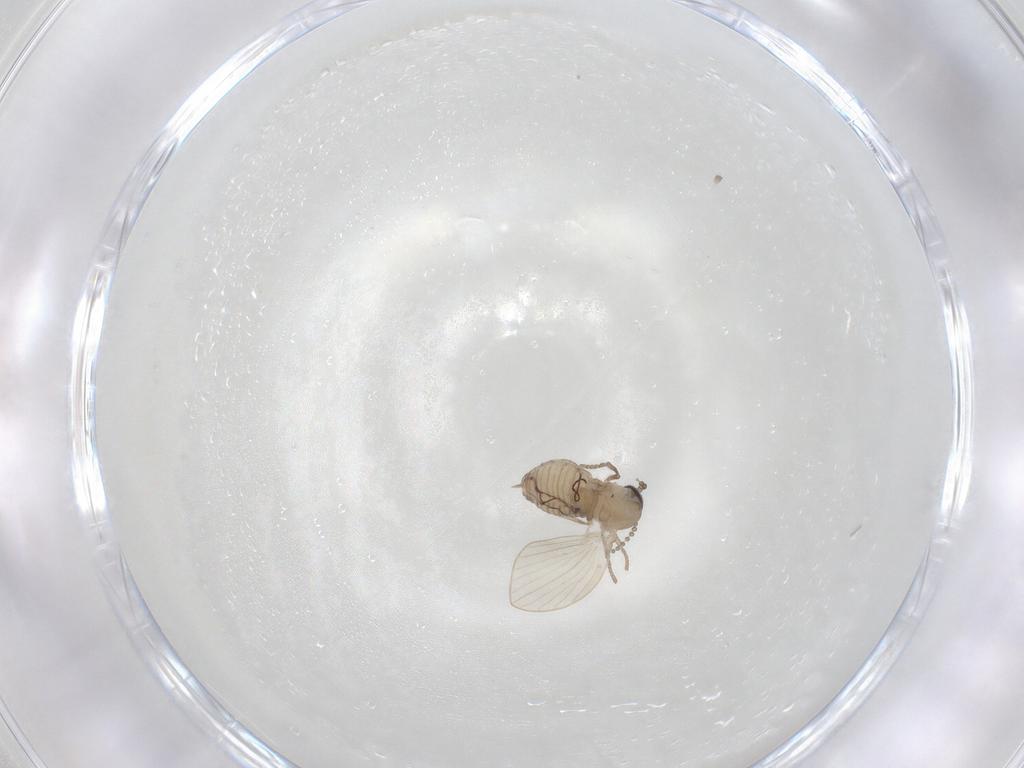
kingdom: Animalia
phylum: Arthropoda
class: Insecta
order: Diptera
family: Psychodidae
